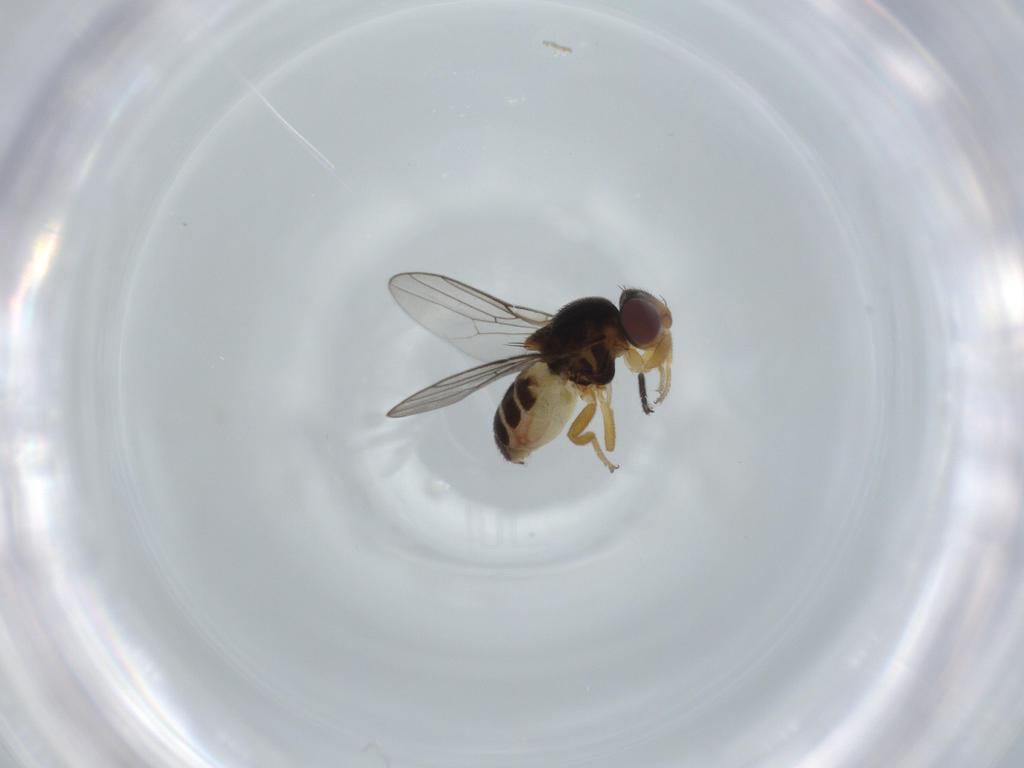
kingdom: Animalia
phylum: Arthropoda
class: Insecta
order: Diptera
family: Chloropidae
